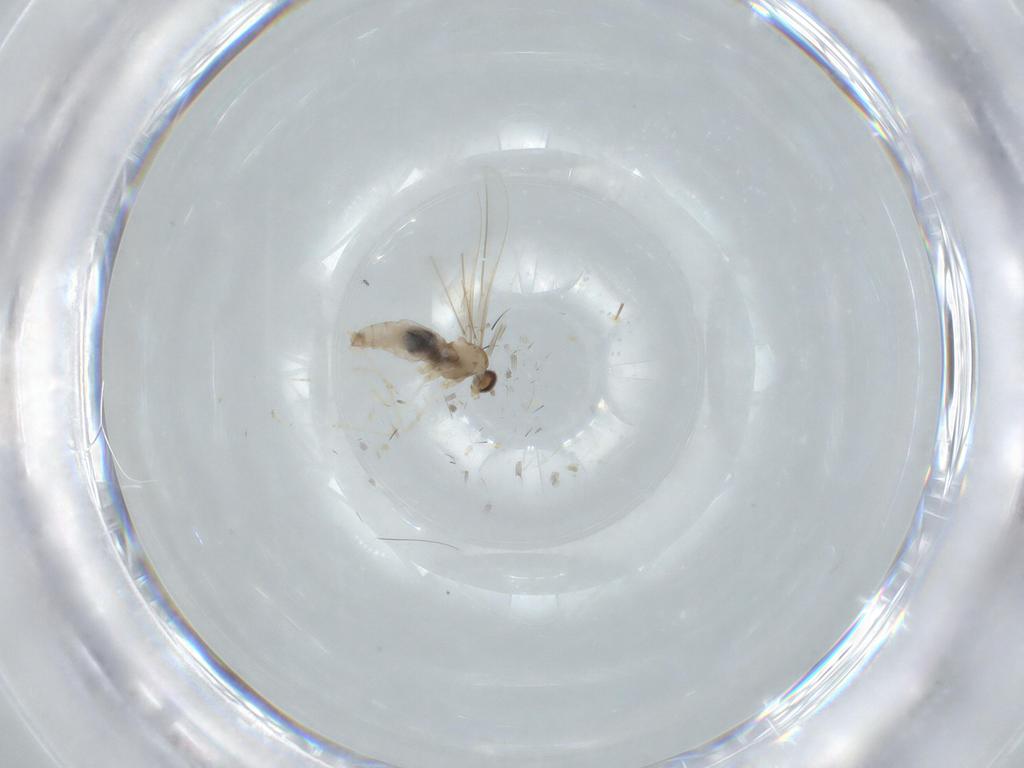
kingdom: Animalia
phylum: Arthropoda
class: Insecta
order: Diptera
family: Cecidomyiidae
